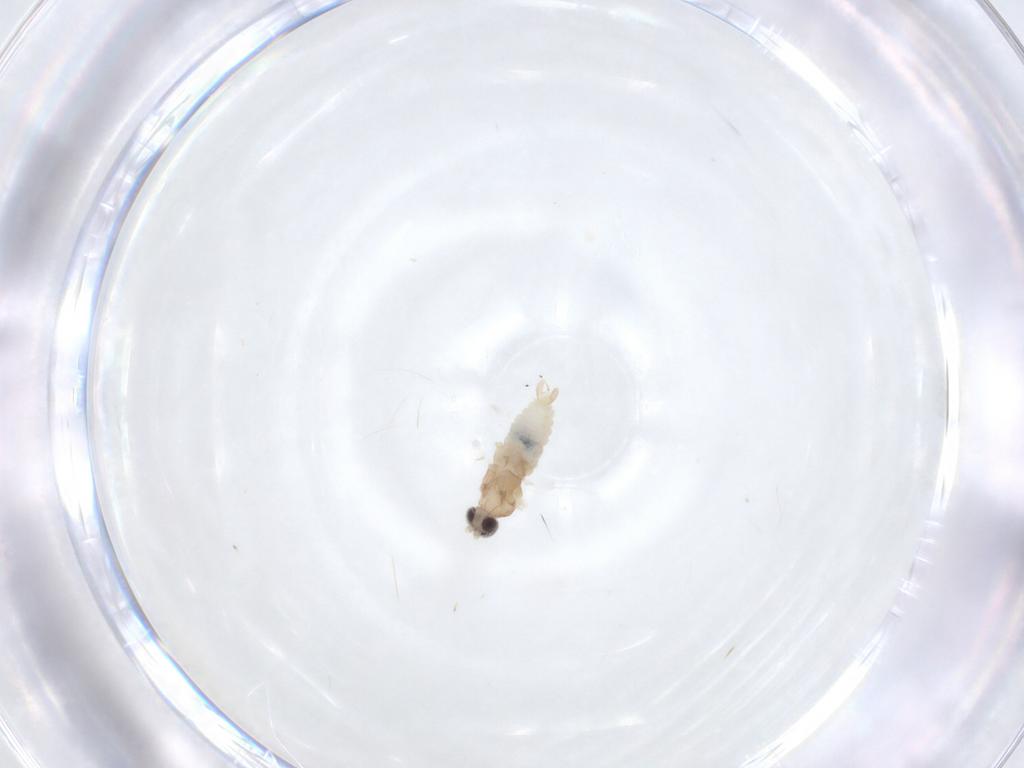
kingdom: Animalia
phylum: Arthropoda
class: Insecta
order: Diptera
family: Cecidomyiidae
